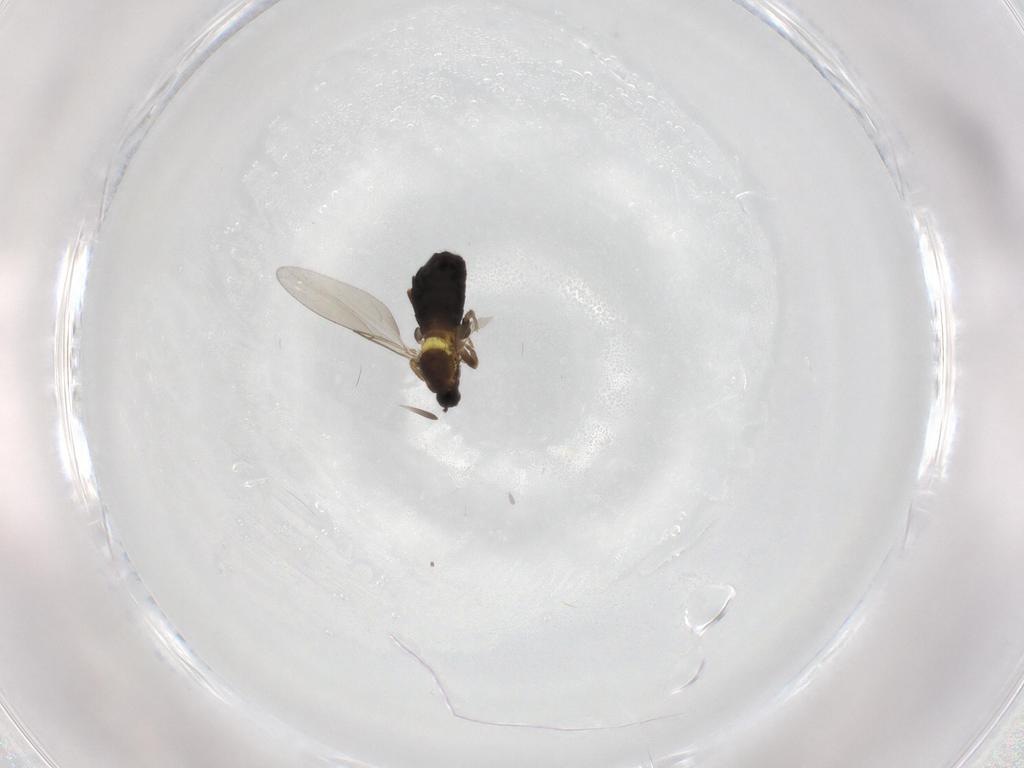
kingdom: Animalia
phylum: Arthropoda
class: Insecta
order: Diptera
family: Scatopsidae
